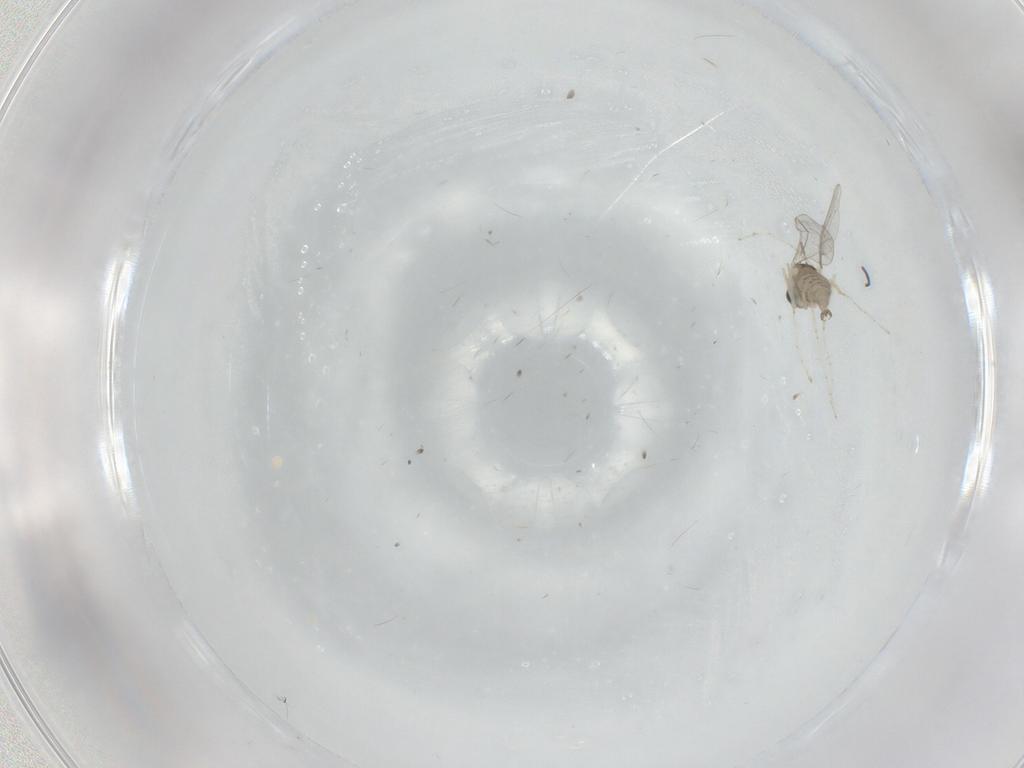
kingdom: Animalia
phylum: Arthropoda
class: Insecta
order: Diptera
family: Cecidomyiidae
